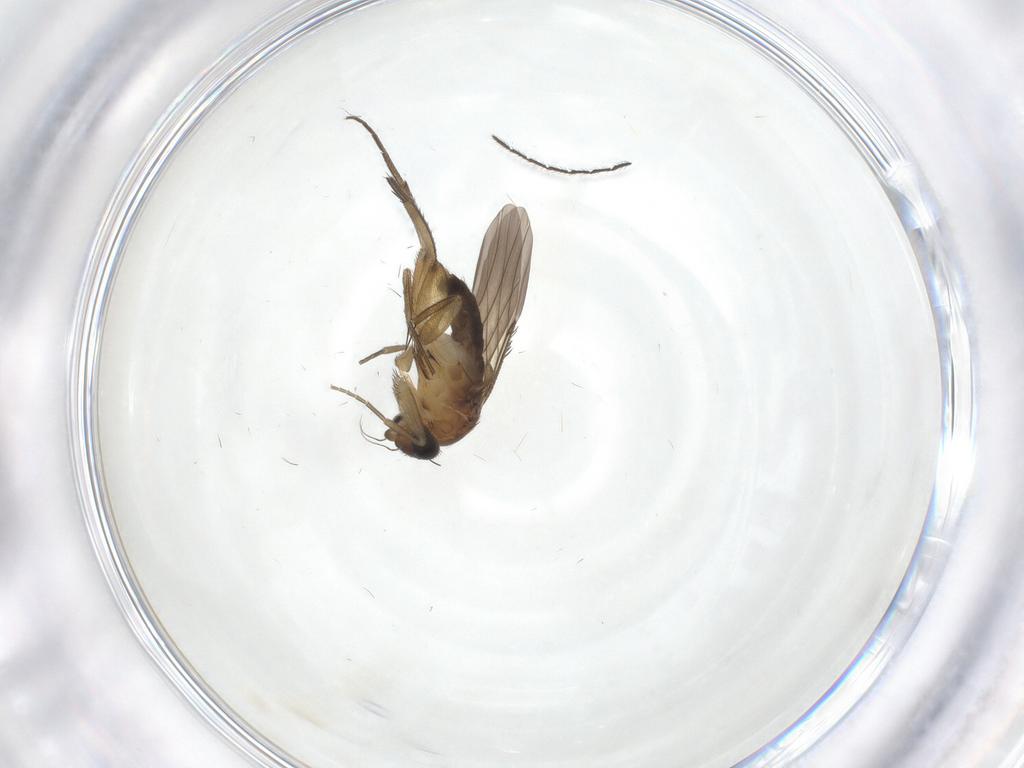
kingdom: Animalia
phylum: Arthropoda
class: Insecta
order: Diptera
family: Phoridae
